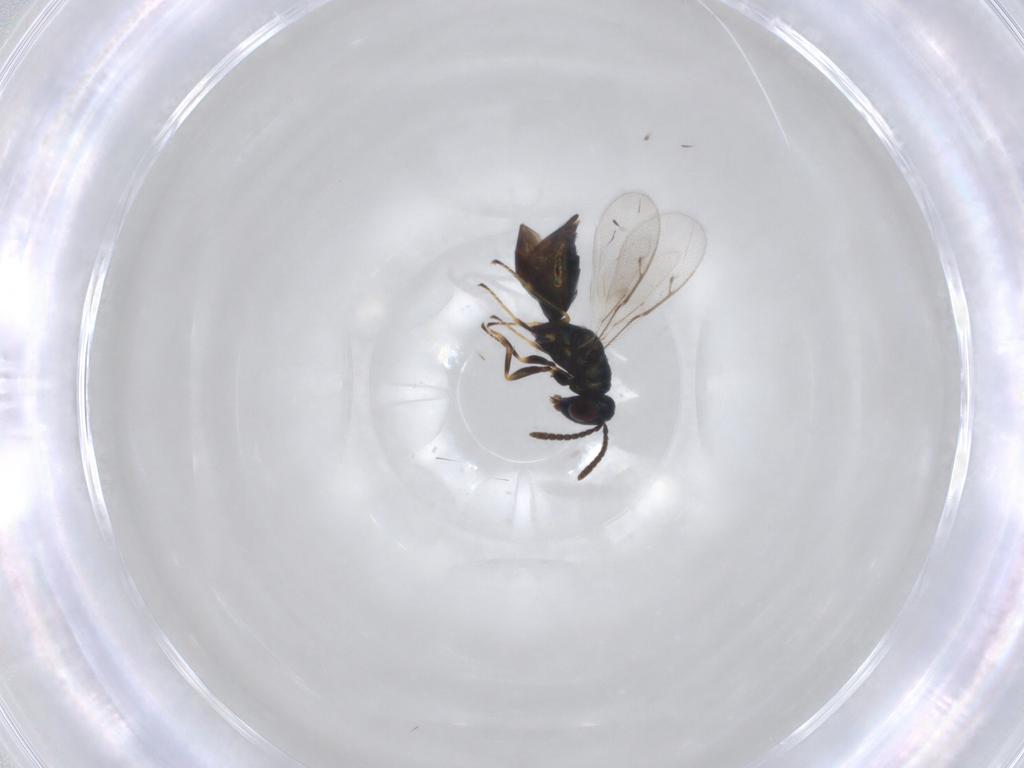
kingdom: Animalia
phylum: Arthropoda
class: Insecta
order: Hymenoptera
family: Pteromalidae
